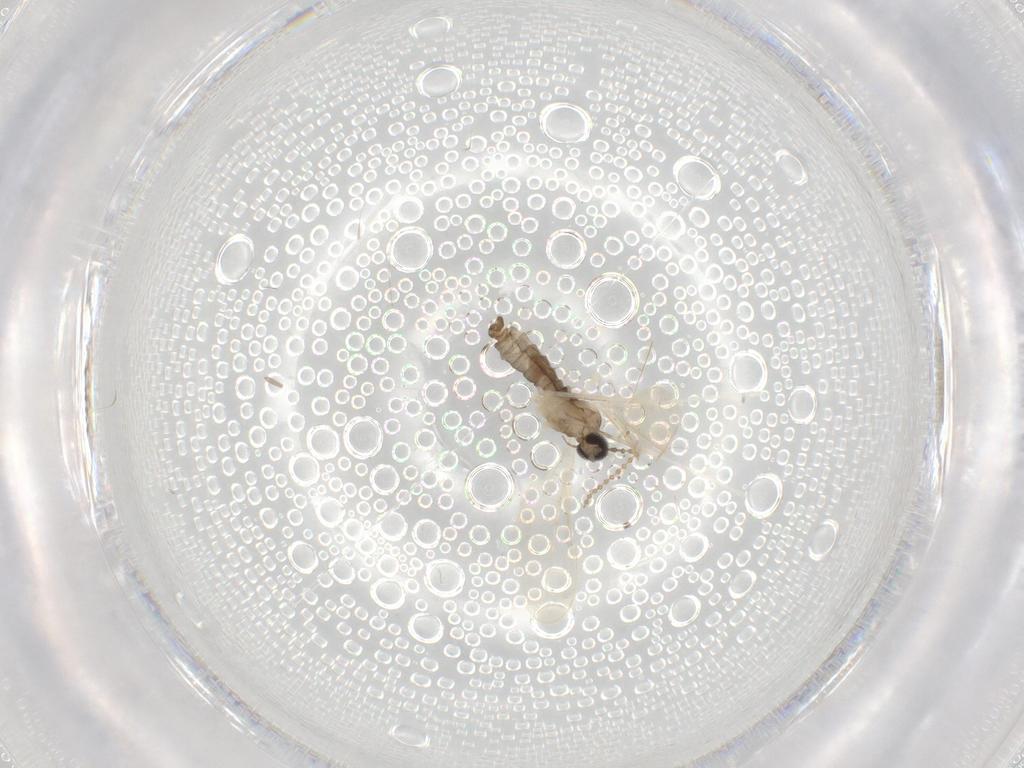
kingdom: Animalia
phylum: Arthropoda
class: Insecta
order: Diptera
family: Cecidomyiidae
